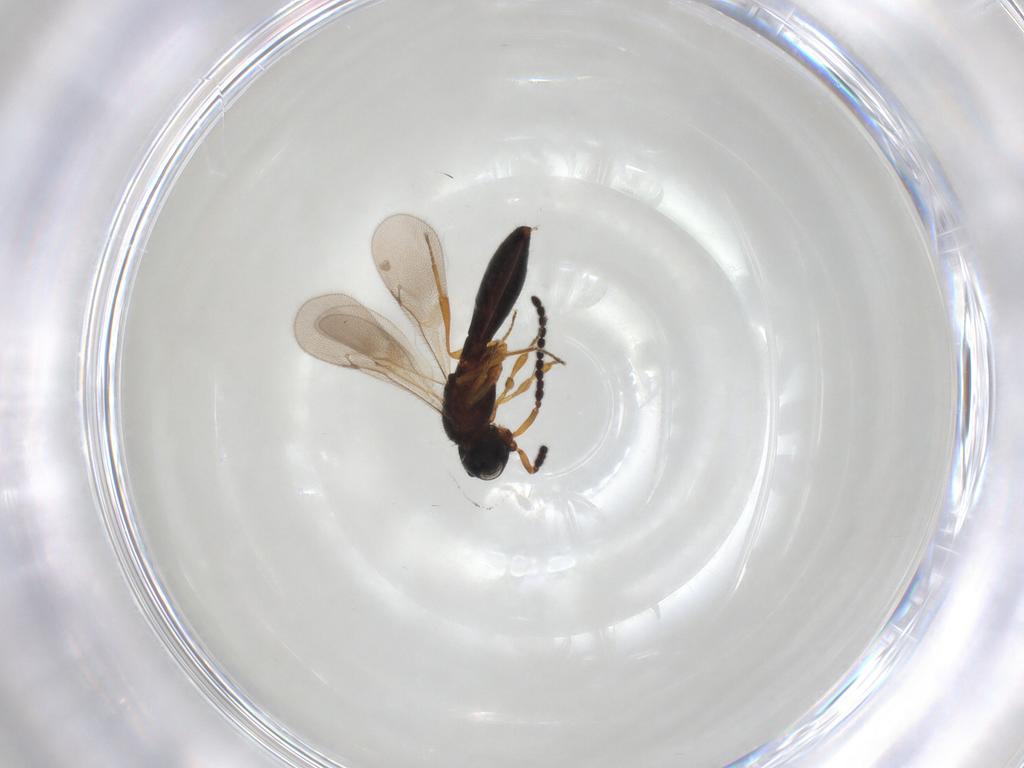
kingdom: Animalia
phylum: Arthropoda
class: Insecta
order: Hymenoptera
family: Scelionidae
